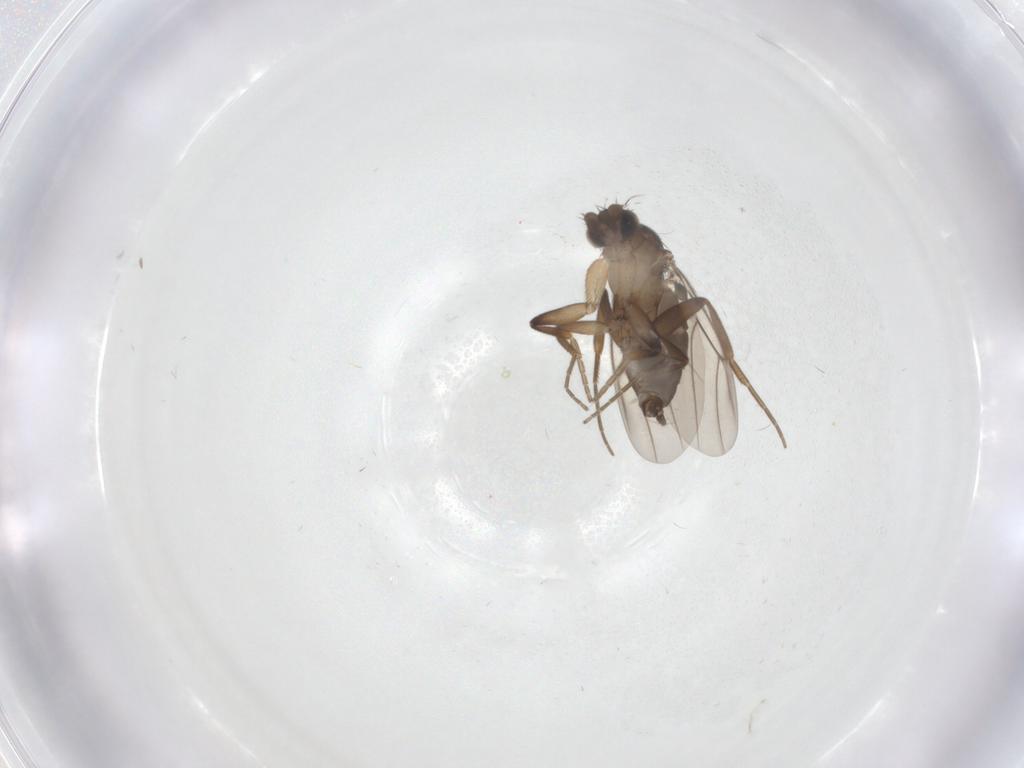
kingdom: Animalia
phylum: Arthropoda
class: Insecta
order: Diptera
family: Phoridae
